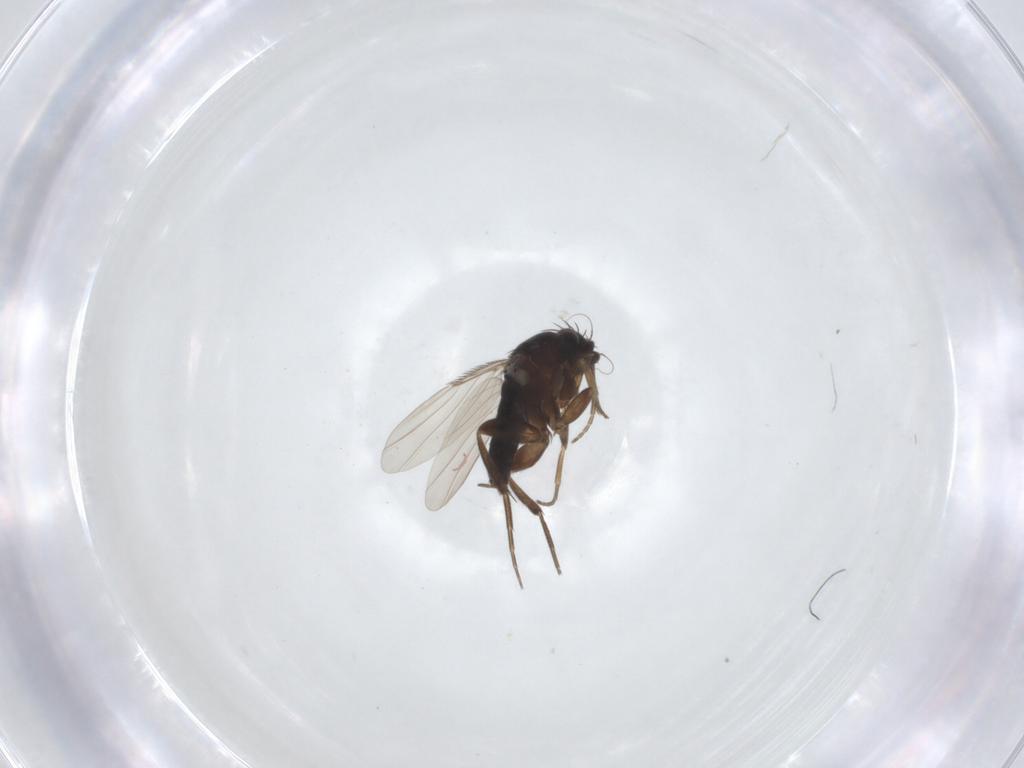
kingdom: Animalia
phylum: Arthropoda
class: Insecta
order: Diptera
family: Phoridae
